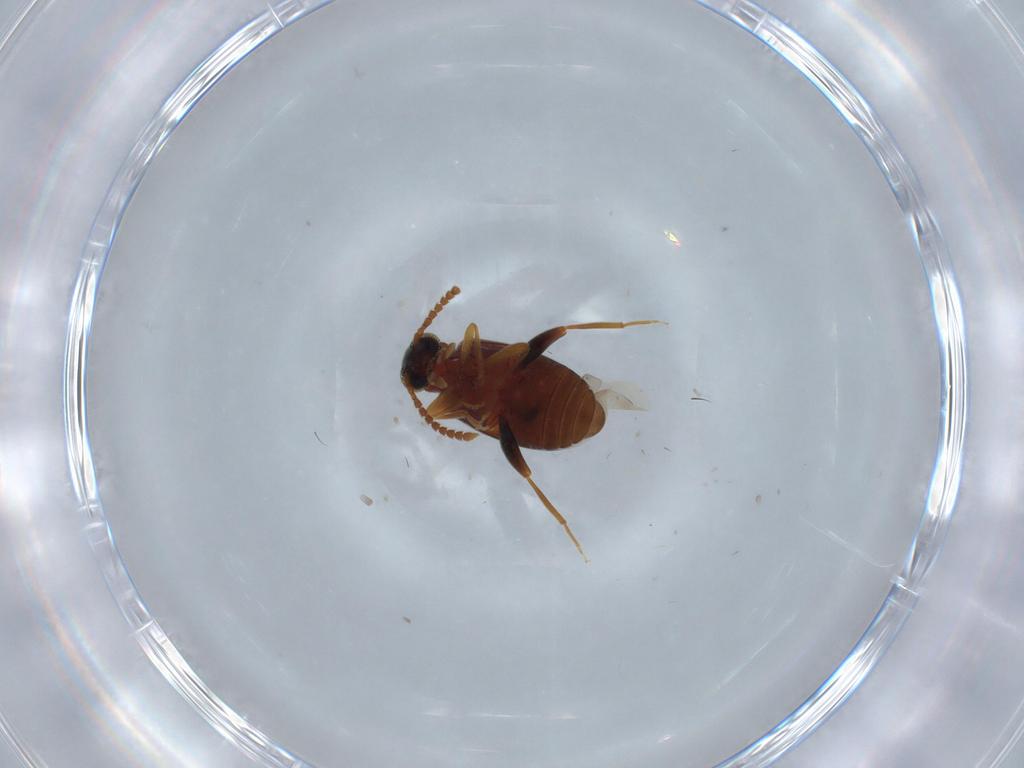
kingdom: Animalia
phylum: Arthropoda
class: Insecta
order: Coleoptera
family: Aderidae
